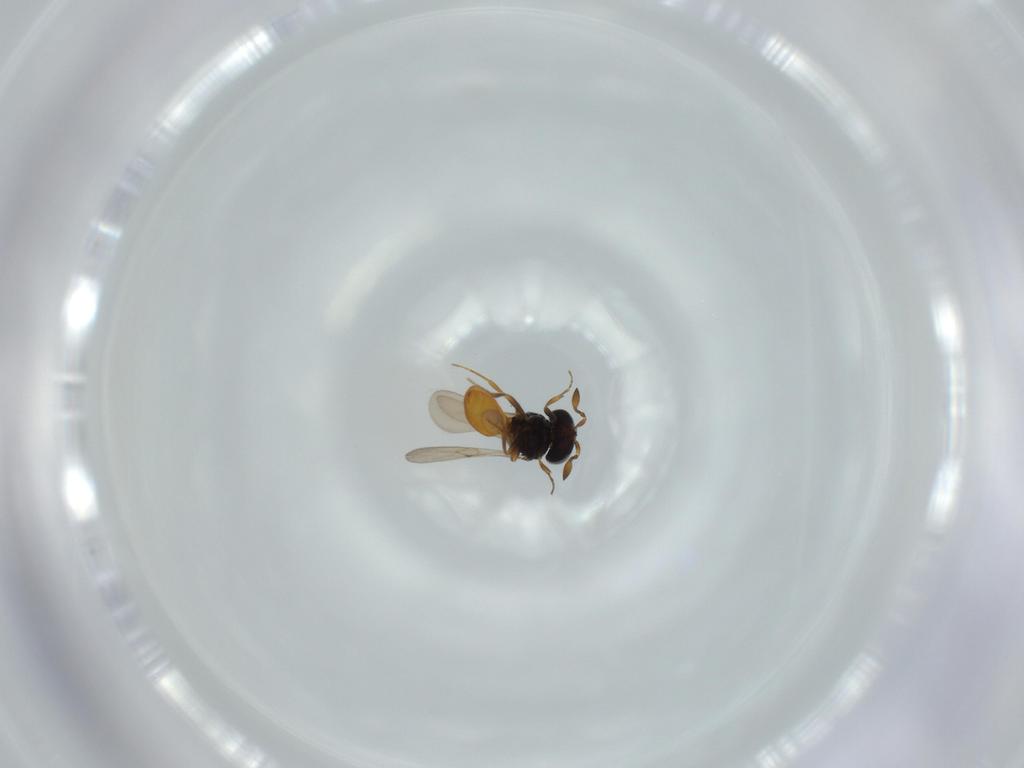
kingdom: Animalia
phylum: Arthropoda
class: Insecta
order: Hymenoptera
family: Scelionidae
